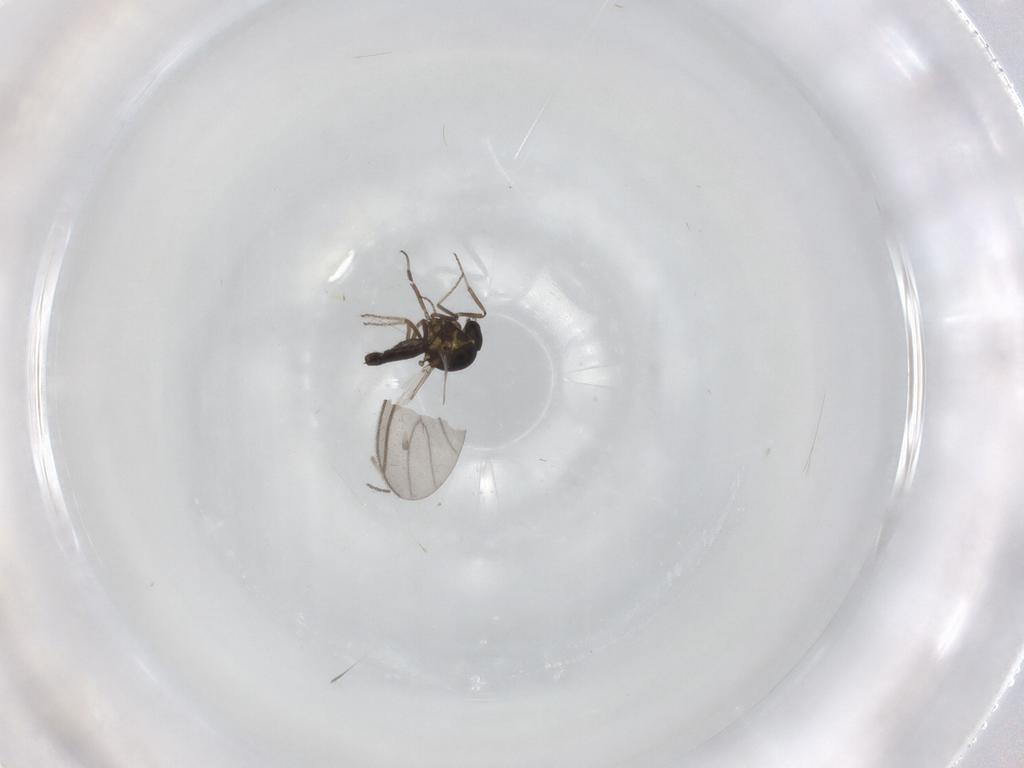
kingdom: Animalia
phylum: Arthropoda
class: Insecta
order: Diptera
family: Ceratopogonidae
